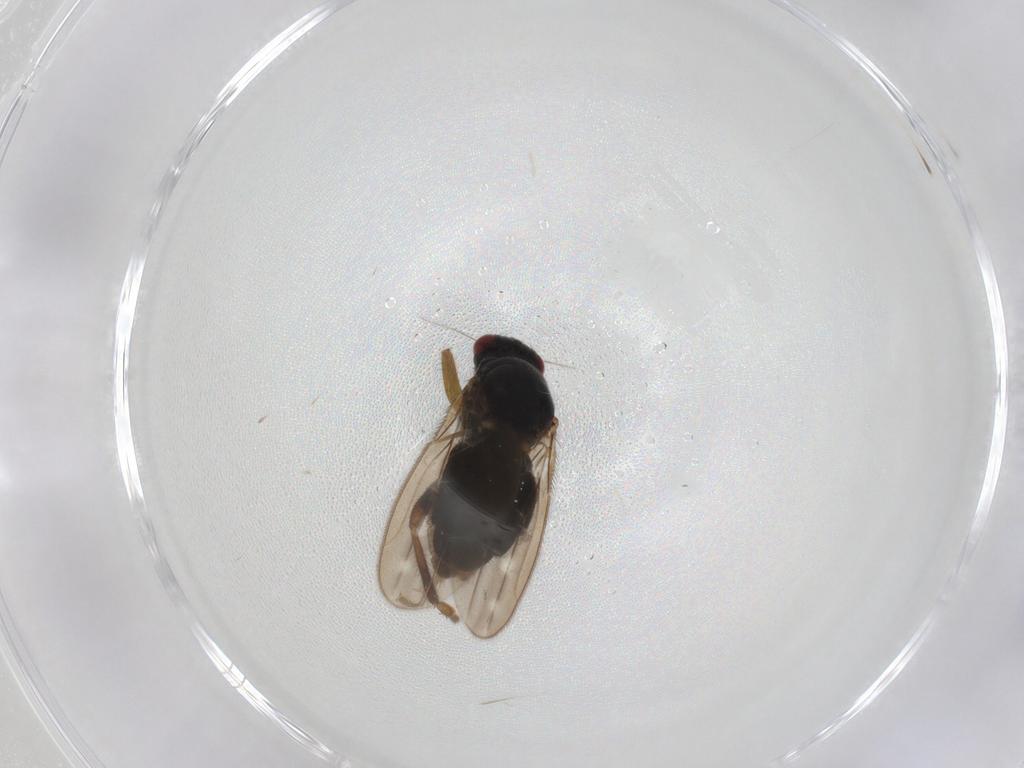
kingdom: Animalia
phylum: Arthropoda
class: Insecta
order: Diptera
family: Sphaeroceridae
